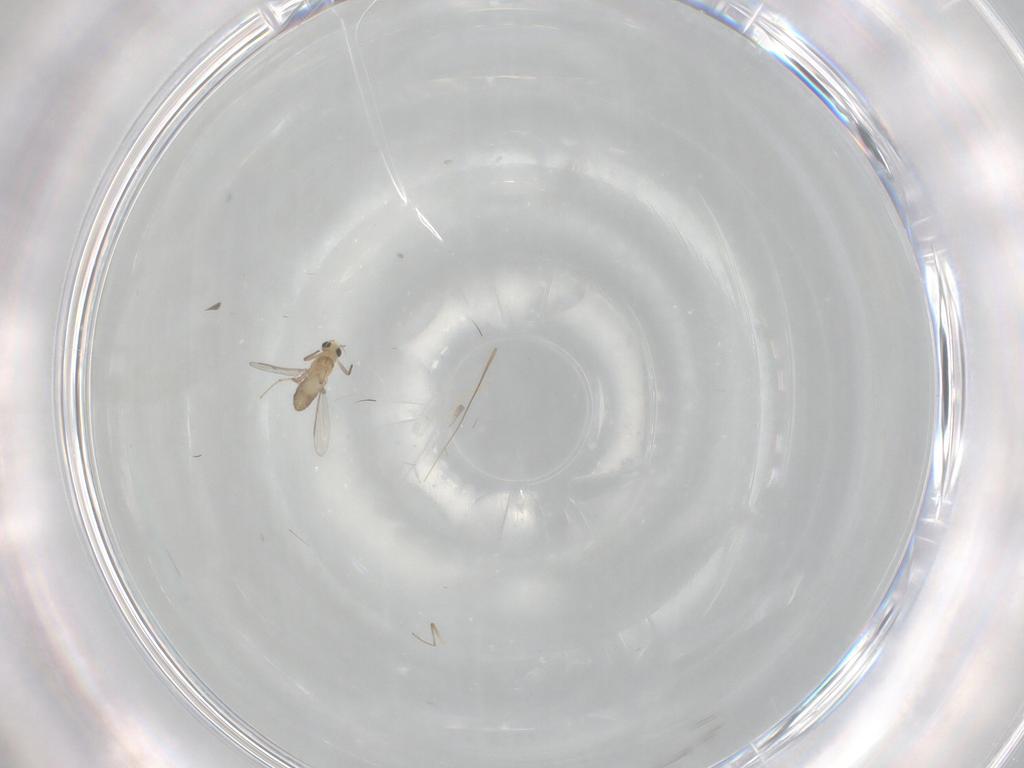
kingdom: Animalia
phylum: Arthropoda
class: Insecta
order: Diptera
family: Chironomidae
